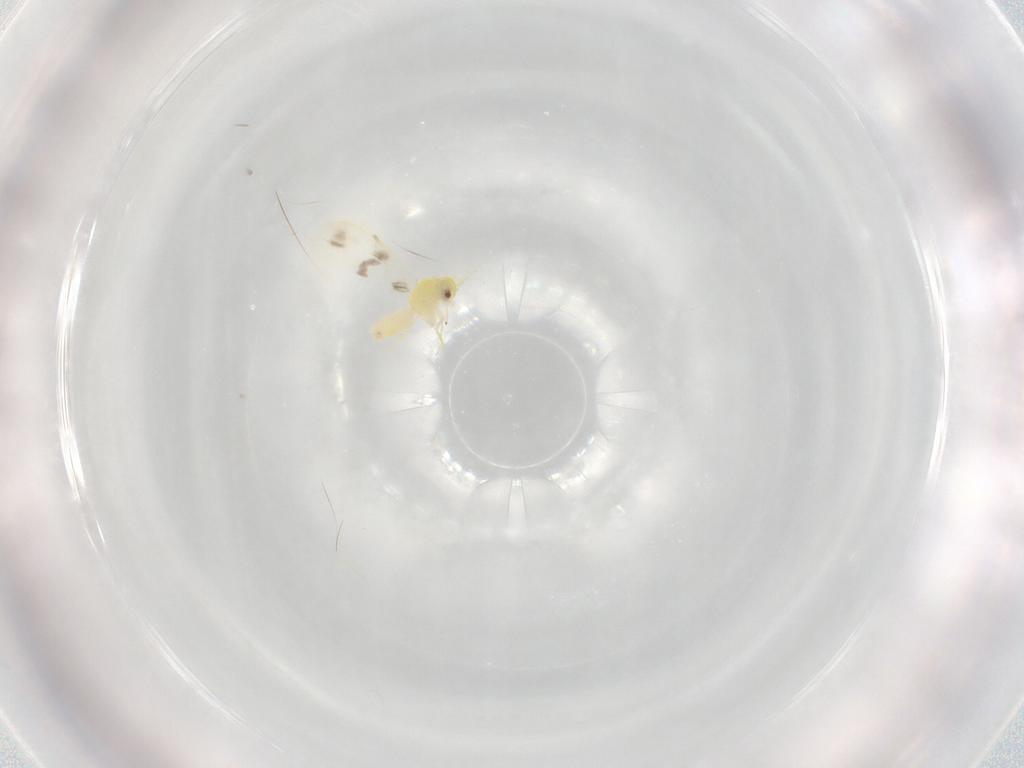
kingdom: Animalia
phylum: Arthropoda
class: Insecta
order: Hemiptera
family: Aleyrodidae
